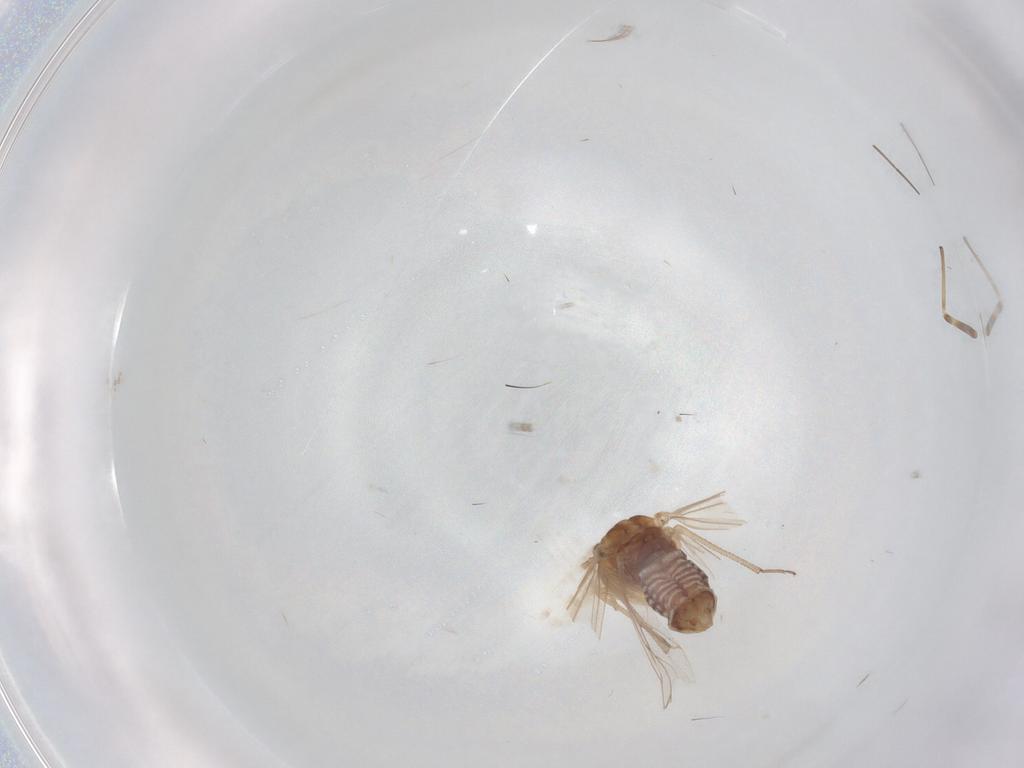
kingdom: Animalia
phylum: Arthropoda
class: Insecta
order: Psocodea
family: Lachesillidae
